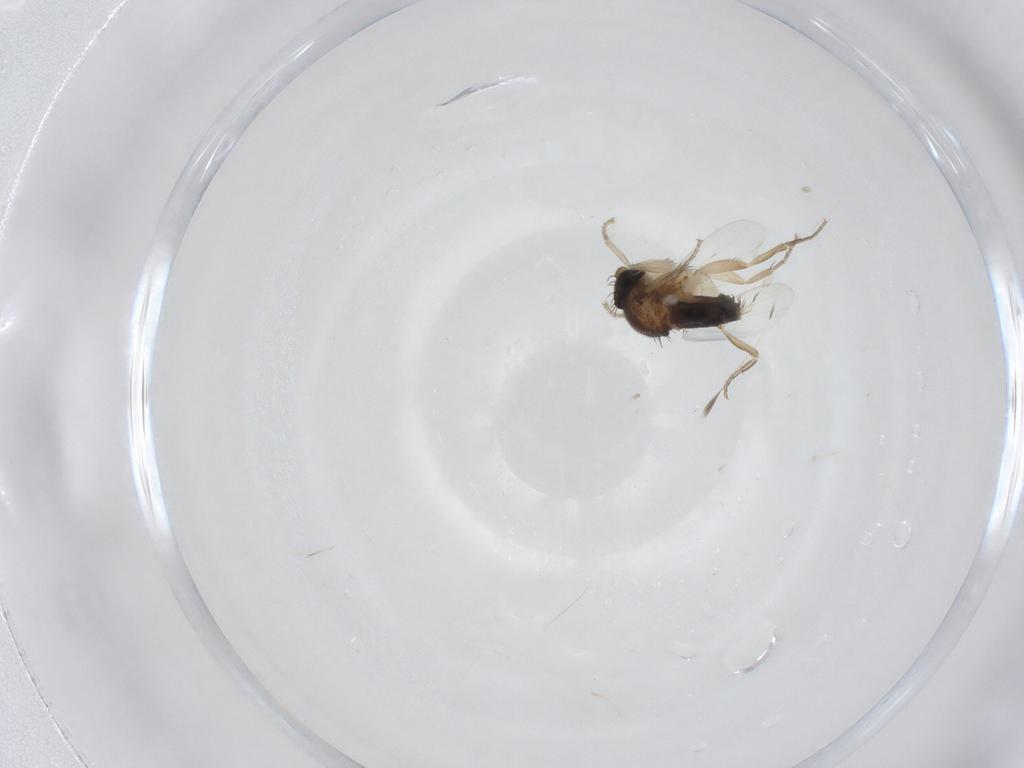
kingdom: Animalia
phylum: Arthropoda
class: Insecta
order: Diptera
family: Phoridae
